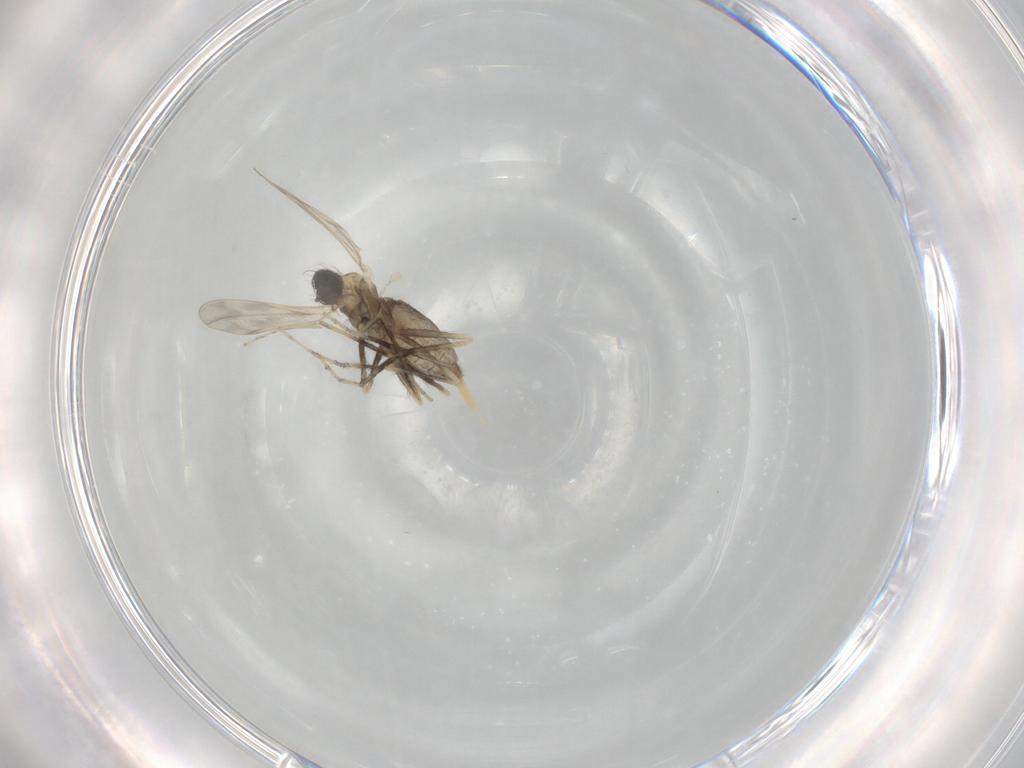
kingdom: Animalia
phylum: Arthropoda
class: Insecta
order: Diptera
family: Cecidomyiidae
